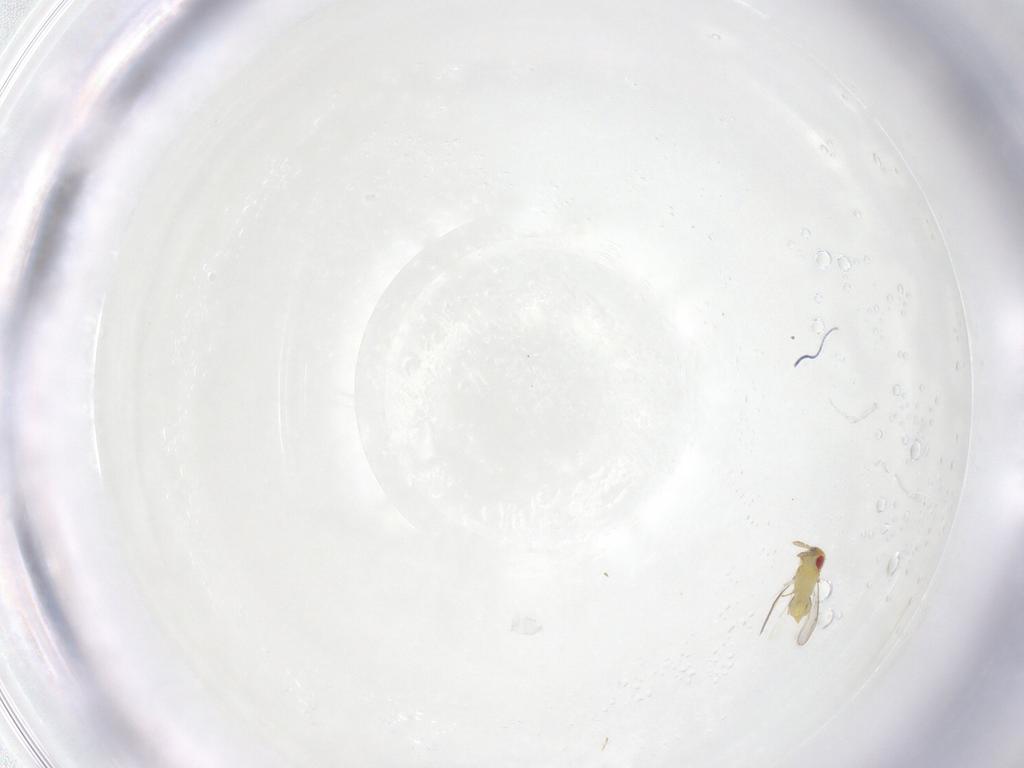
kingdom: Animalia
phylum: Arthropoda
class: Insecta
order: Hymenoptera
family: Aphelinidae
